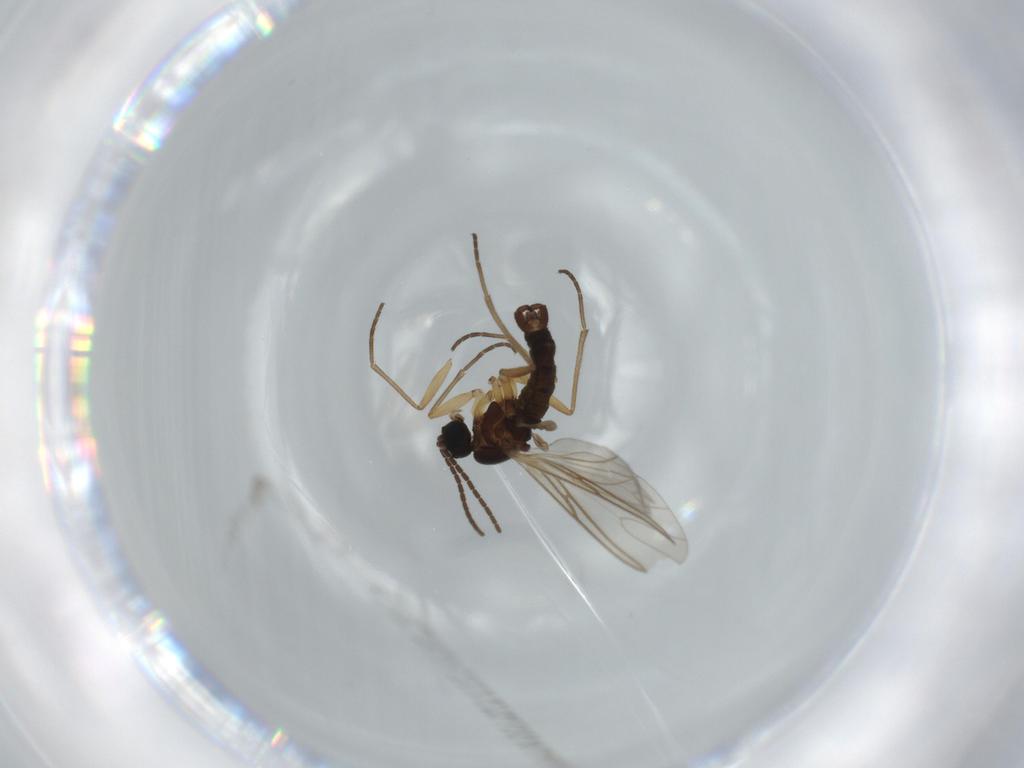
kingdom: Animalia
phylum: Arthropoda
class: Insecta
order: Diptera
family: Sciaridae
